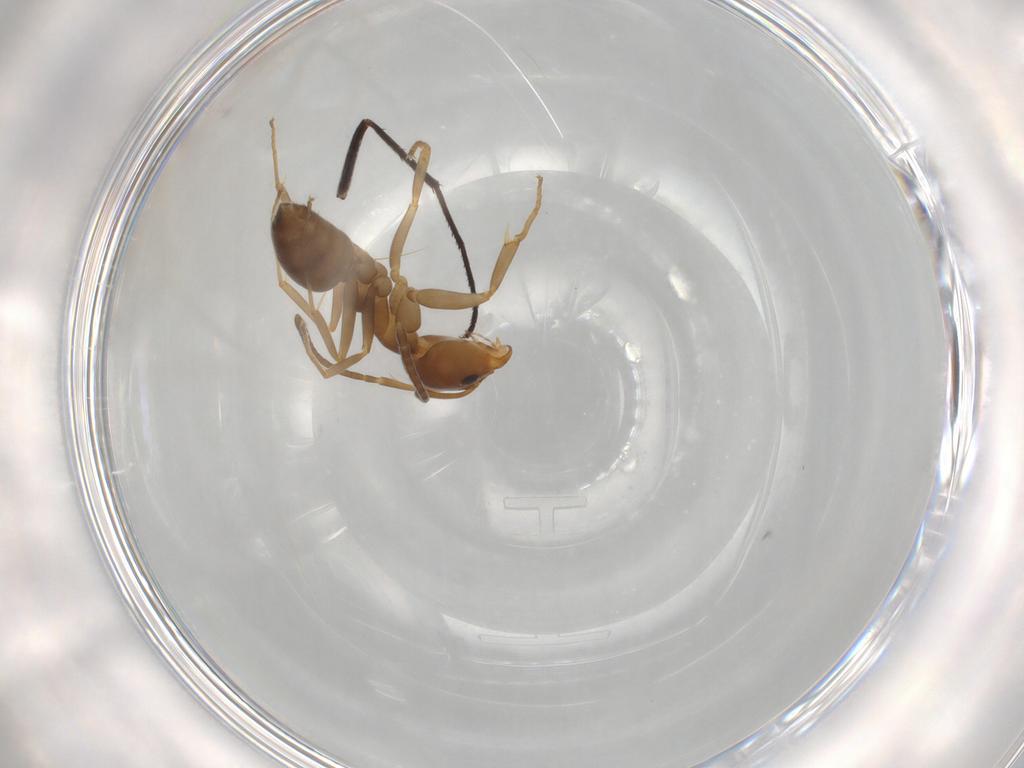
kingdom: Animalia
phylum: Arthropoda
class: Insecta
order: Hymenoptera
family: Formicidae
